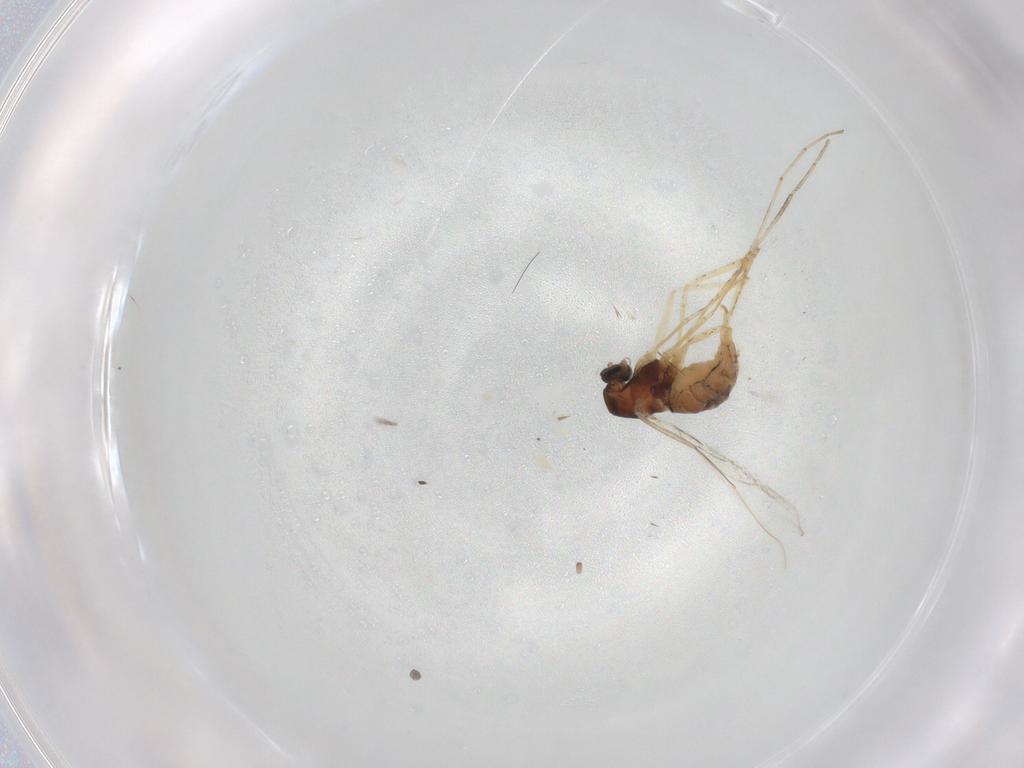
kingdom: Animalia
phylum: Arthropoda
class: Insecta
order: Diptera
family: Cecidomyiidae
